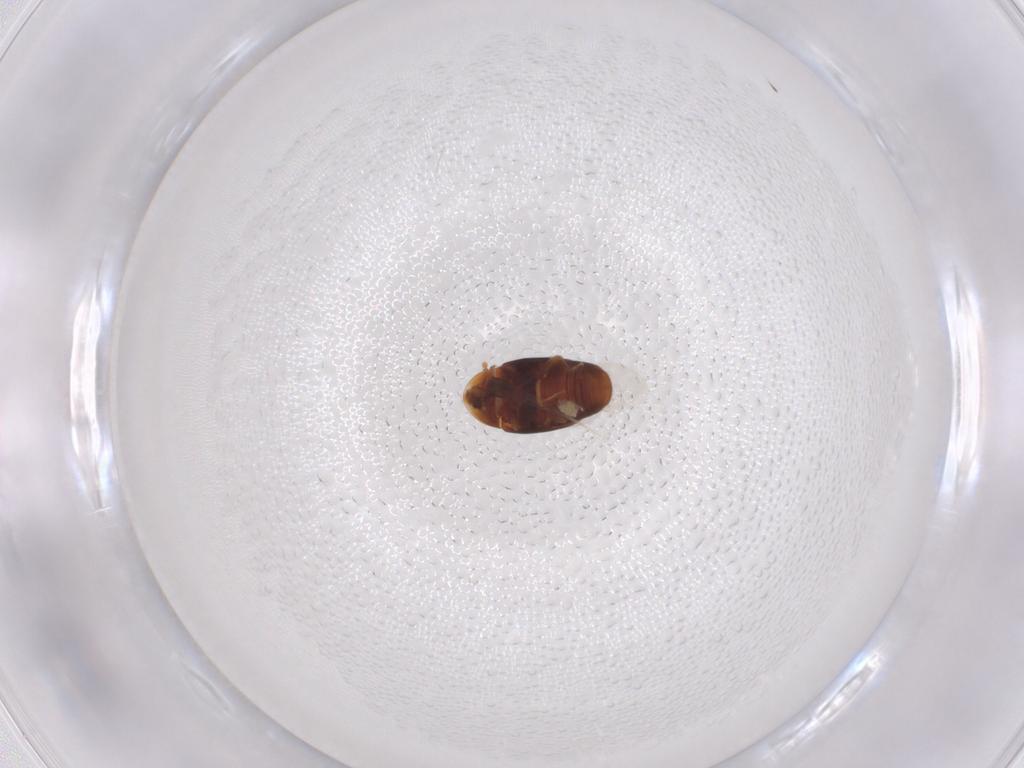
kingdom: Animalia
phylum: Arthropoda
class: Insecta
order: Coleoptera
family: Corylophidae
